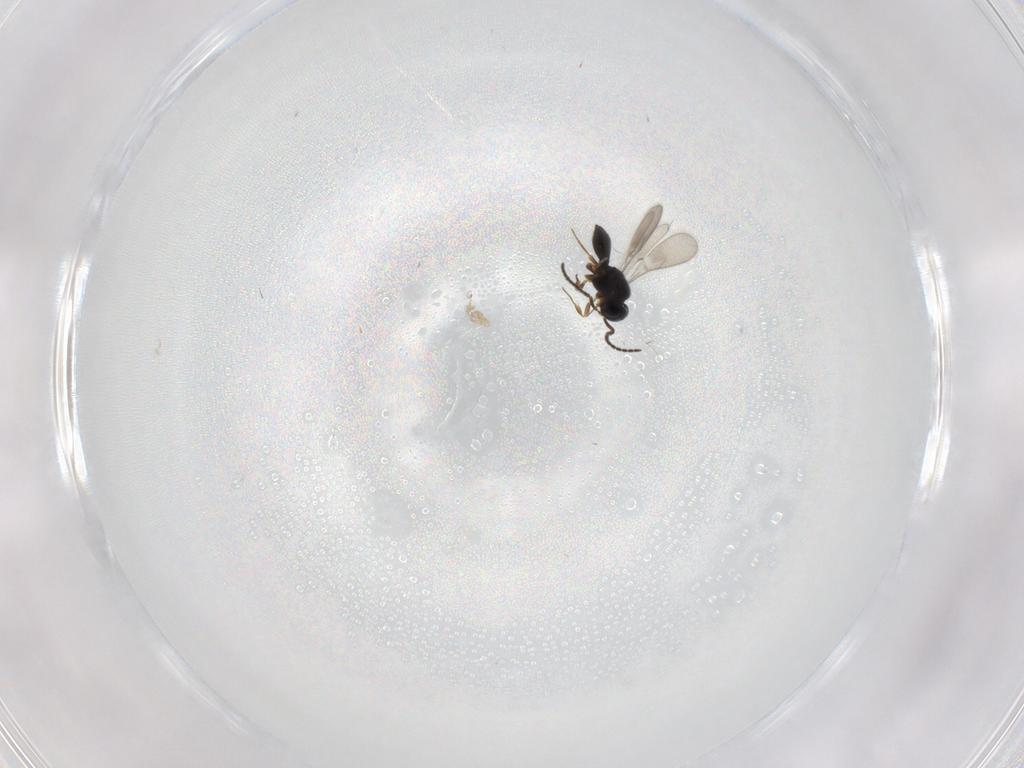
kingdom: Animalia
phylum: Arthropoda
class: Insecta
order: Hymenoptera
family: Scelionidae
